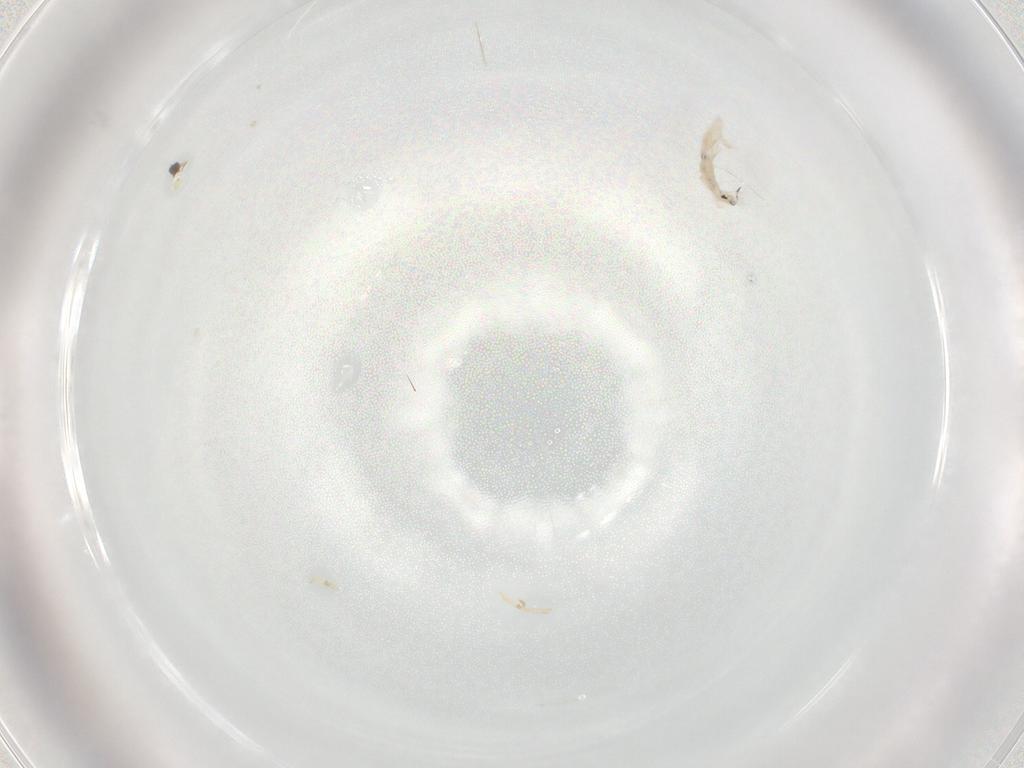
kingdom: Animalia
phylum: Arthropoda
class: Collembola
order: Entomobryomorpha
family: Entomobryidae
